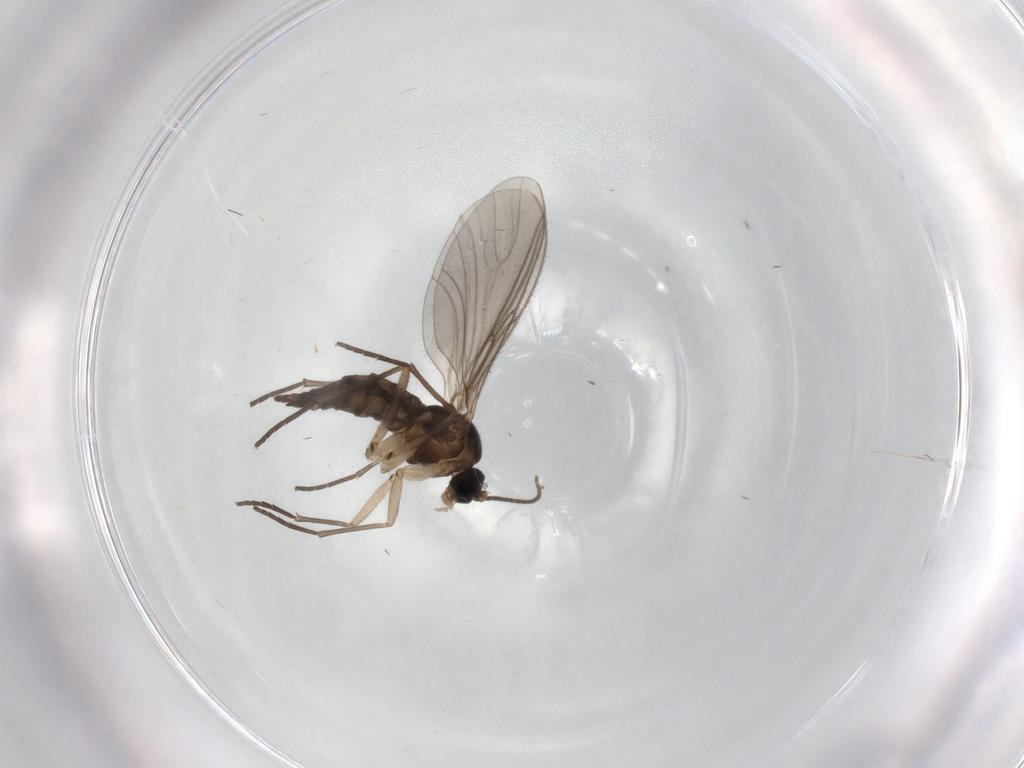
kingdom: Animalia
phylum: Arthropoda
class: Insecta
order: Diptera
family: Sciaridae
